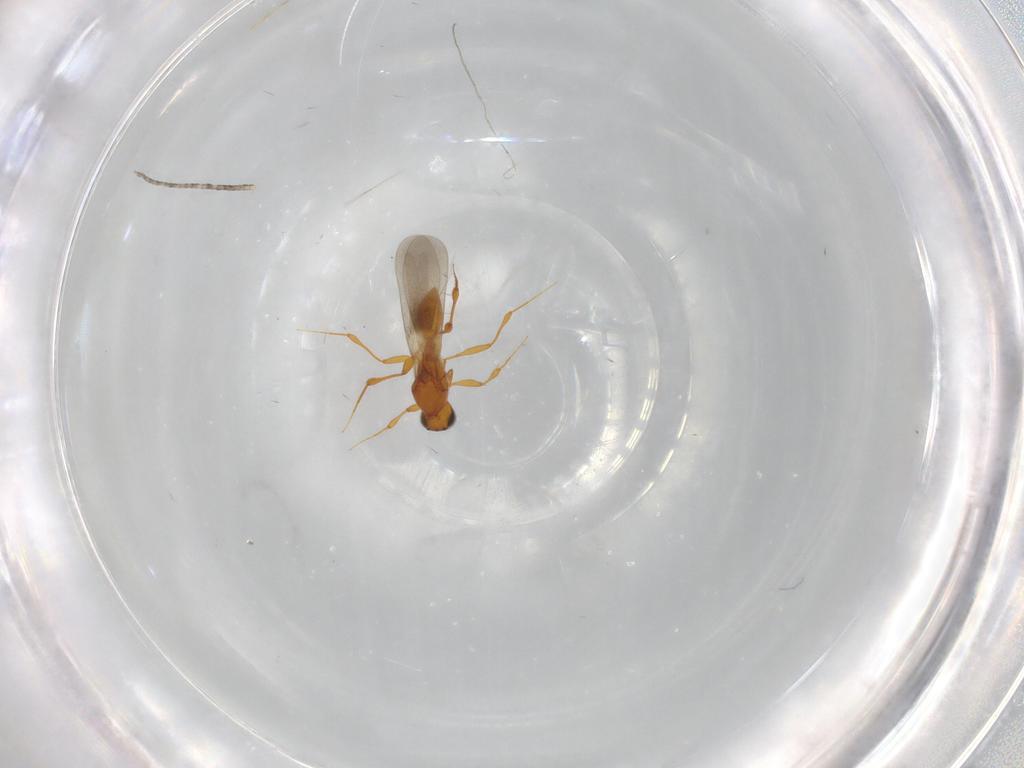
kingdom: Animalia
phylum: Arthropoda
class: Insecta
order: Hymenoptera
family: Platygastridae
